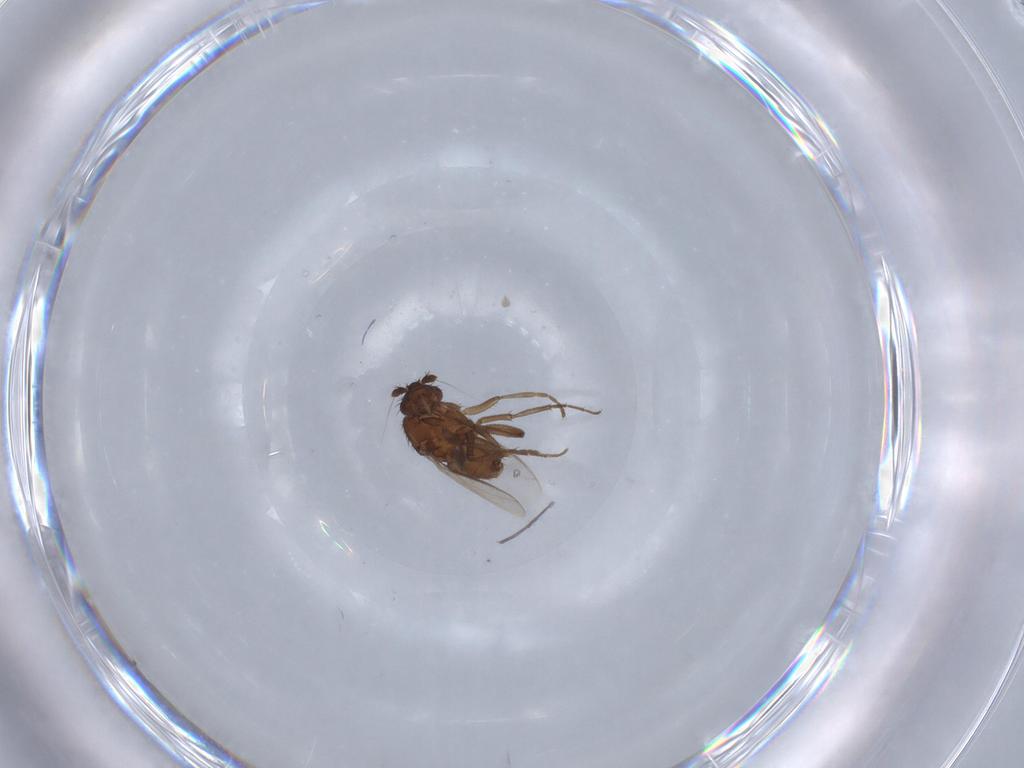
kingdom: Animalia
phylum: Arthropoda
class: Insecta
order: Diptera
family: Sphaeroceridae
